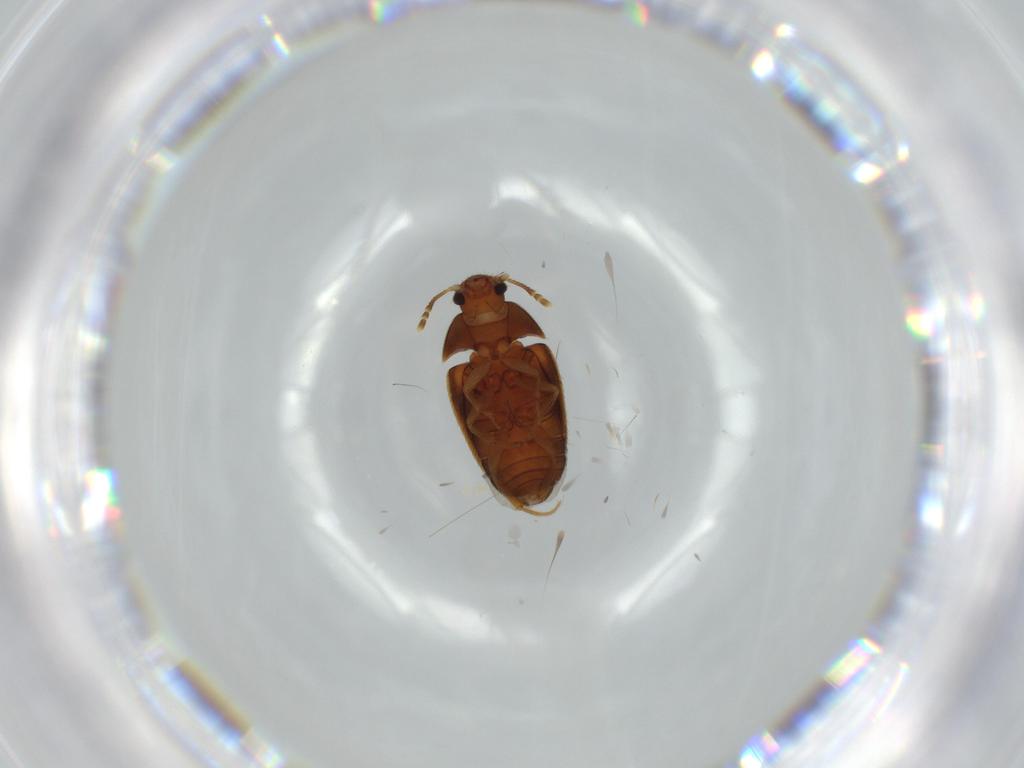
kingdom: Animalia
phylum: Arthropoda
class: Insecta
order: Coleoptera
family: Mycetophagidae
